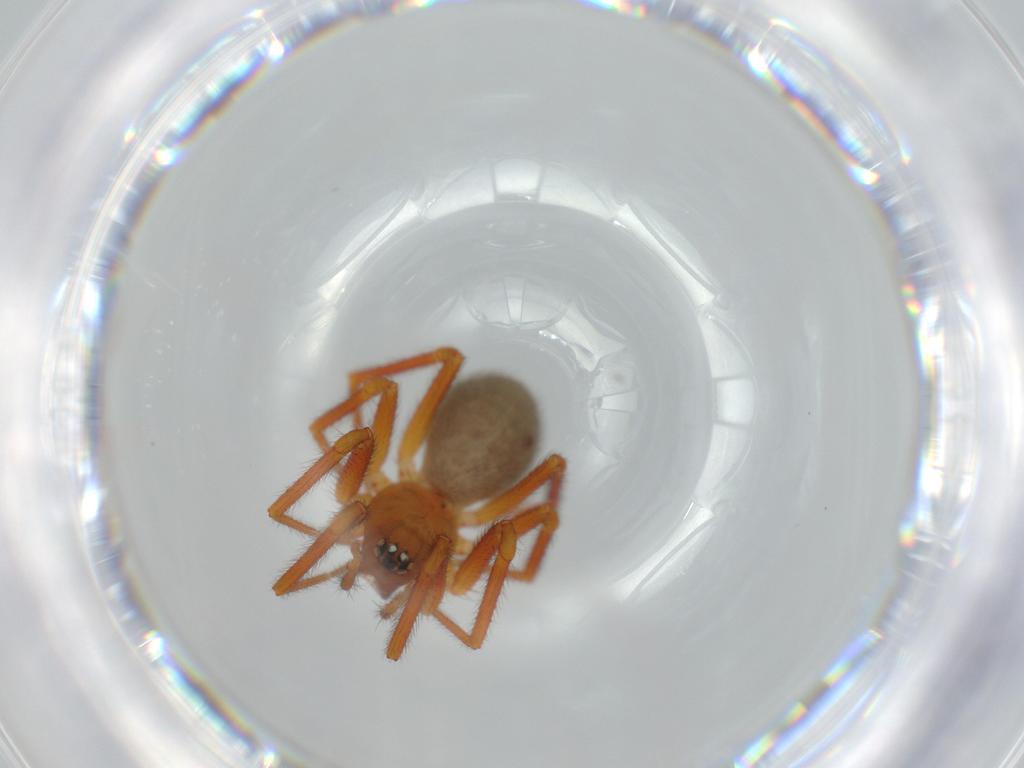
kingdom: Animalia
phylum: Arthropoda
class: Arachnida
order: Araneae
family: Linyphiidae
